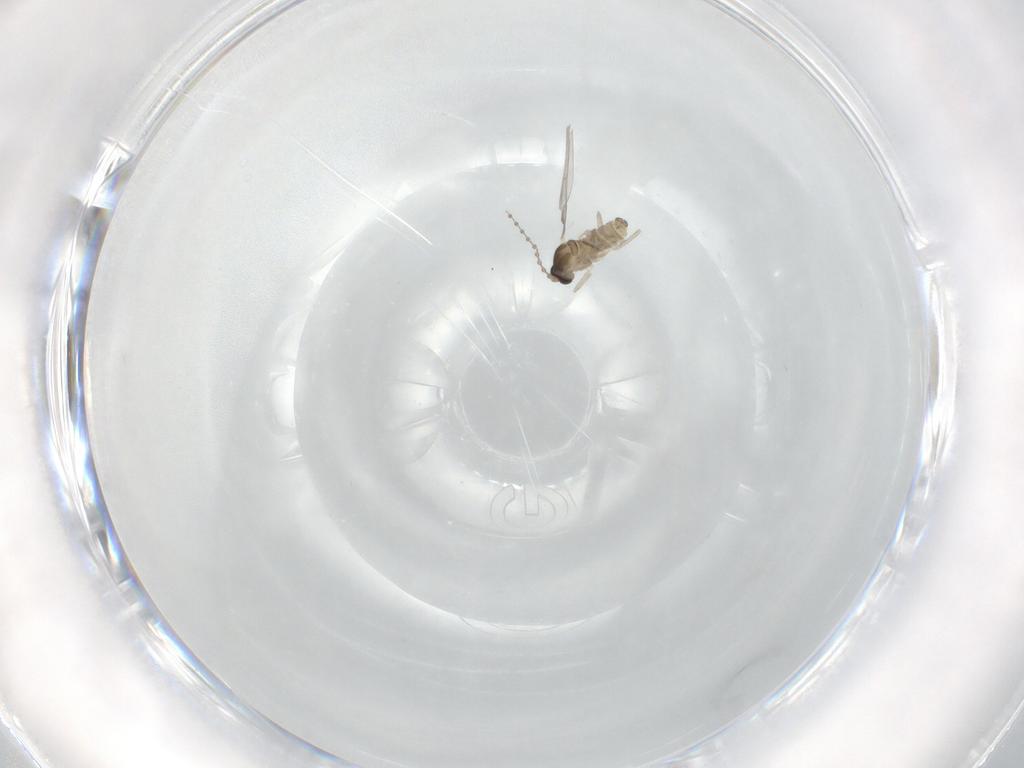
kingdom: Animalia
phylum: Arthropoda
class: Insecta
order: Diptera
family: Cecidomyiidae
